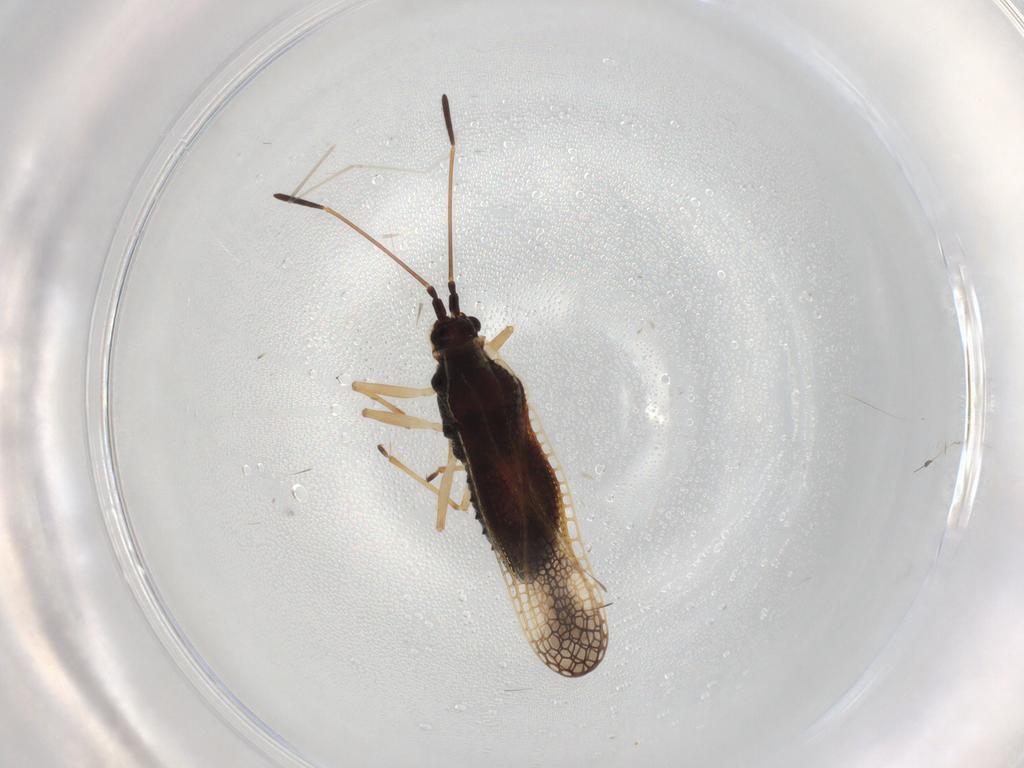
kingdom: Animalia
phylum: Arthropoda
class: Insecta
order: Hemiptera
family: Tingidae
